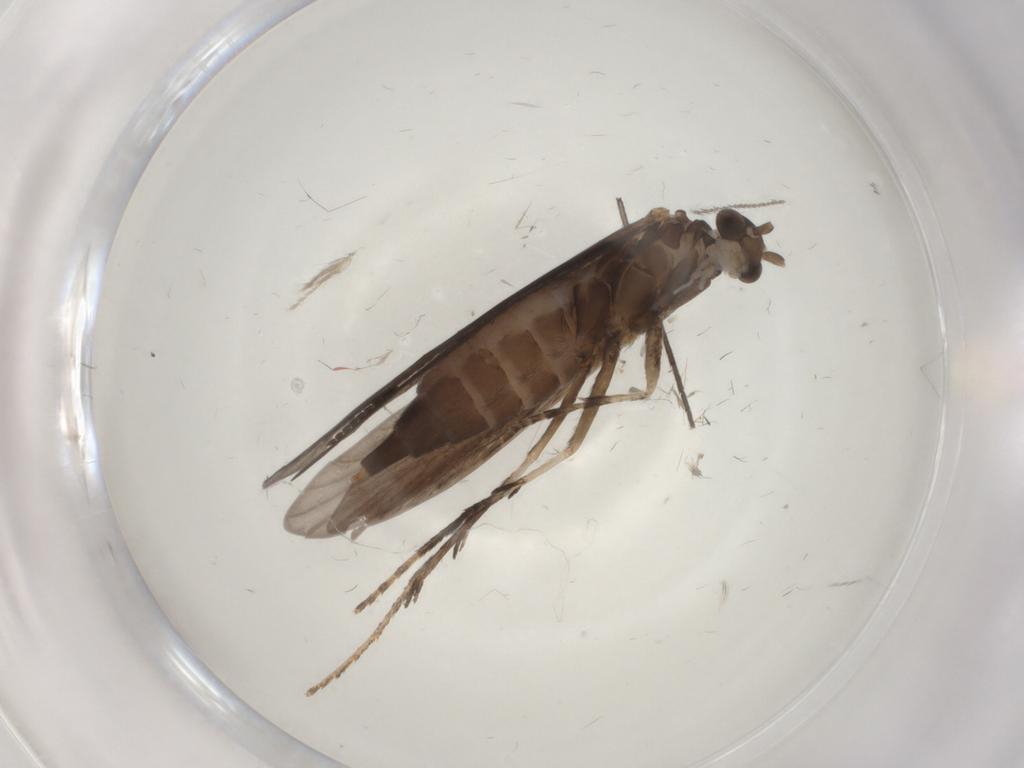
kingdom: Animalia
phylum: Arthropoda
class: Insecta
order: Trichoptera
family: Xiphocentronidae
